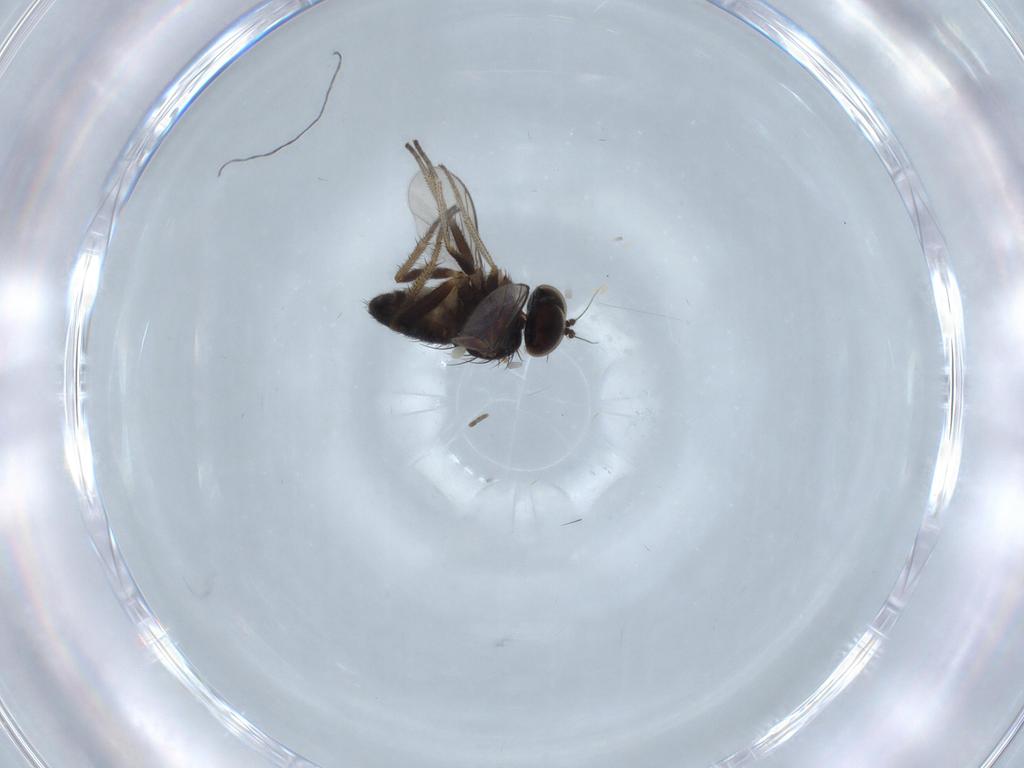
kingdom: Animalia
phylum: Arthropoda
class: Insecta
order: Diptera
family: Cecidomyiidae
